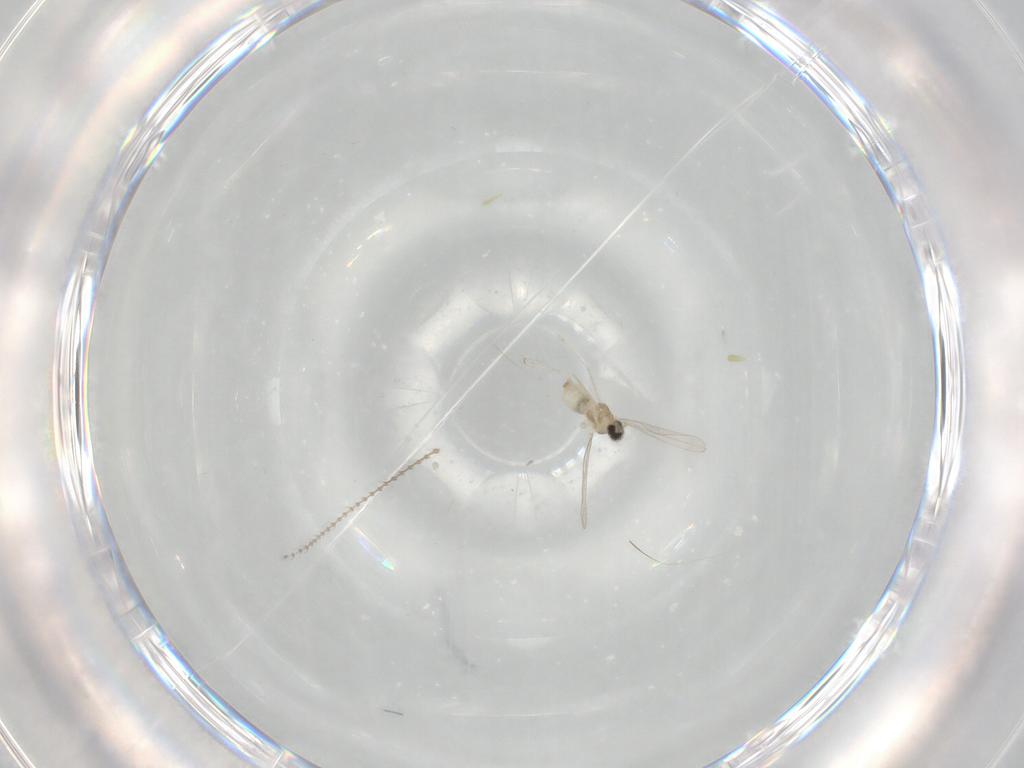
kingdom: Animalia
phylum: Arthropoda
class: Insecta
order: Diptera
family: Cecidomyiidae
